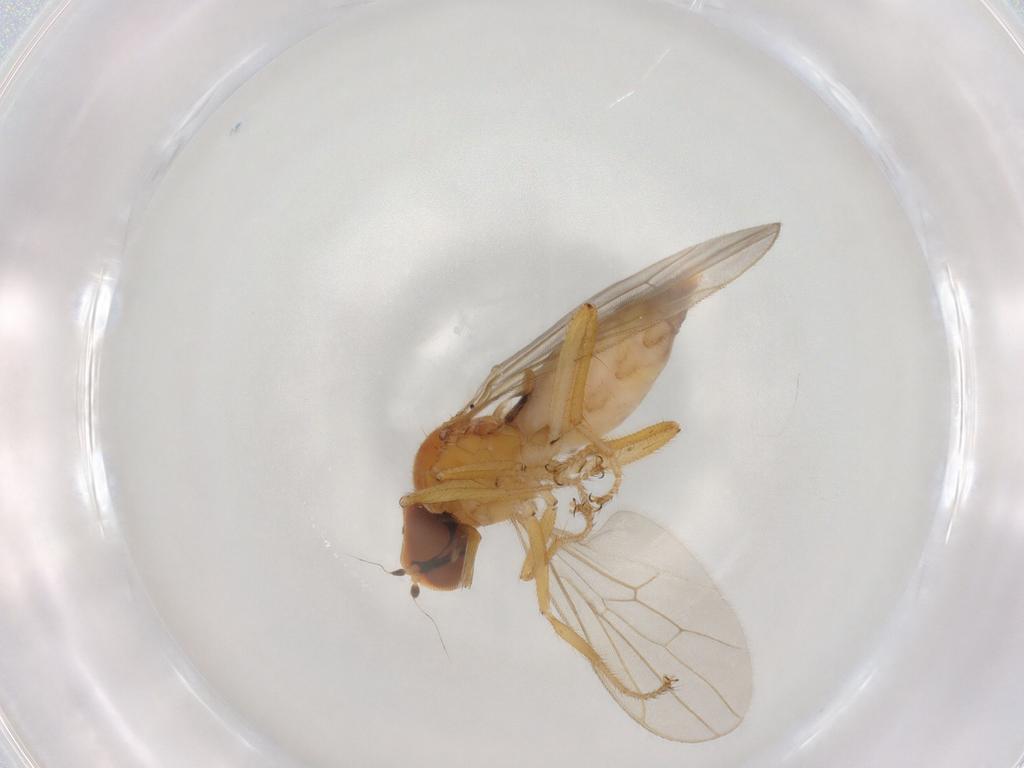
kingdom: Animalia
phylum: Arthropoda
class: Insecta
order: Diptera
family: Hybotidae
